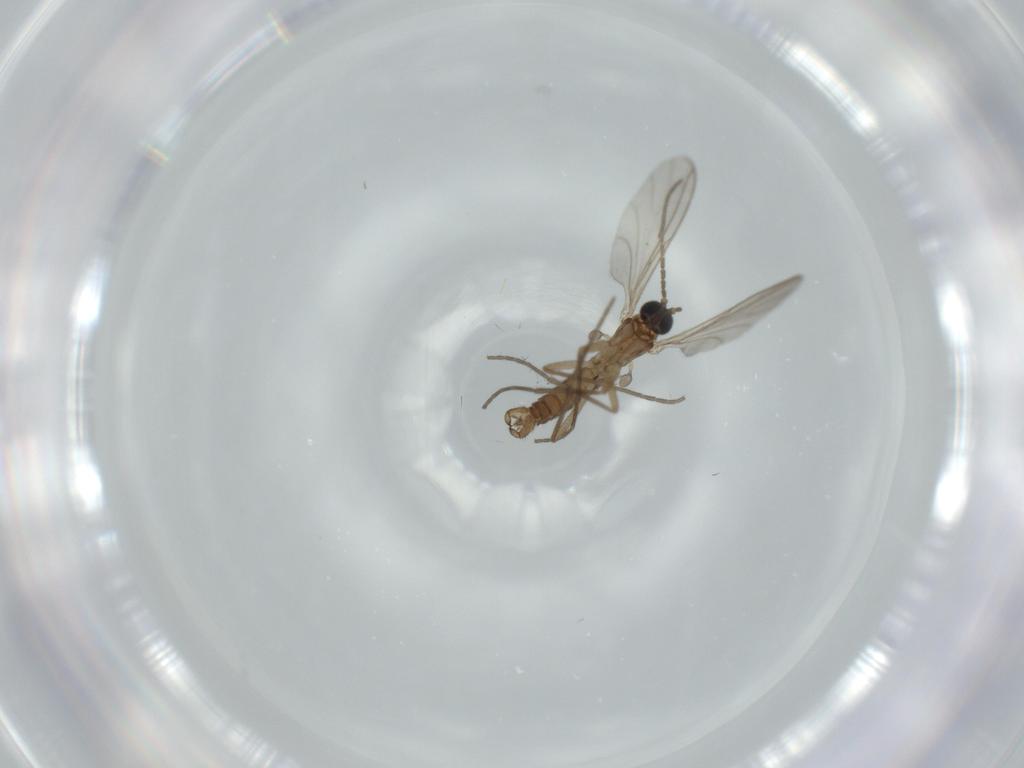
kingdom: Animalia
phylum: Arthropoda
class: Insecta
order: Diptera
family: Sciaridae
